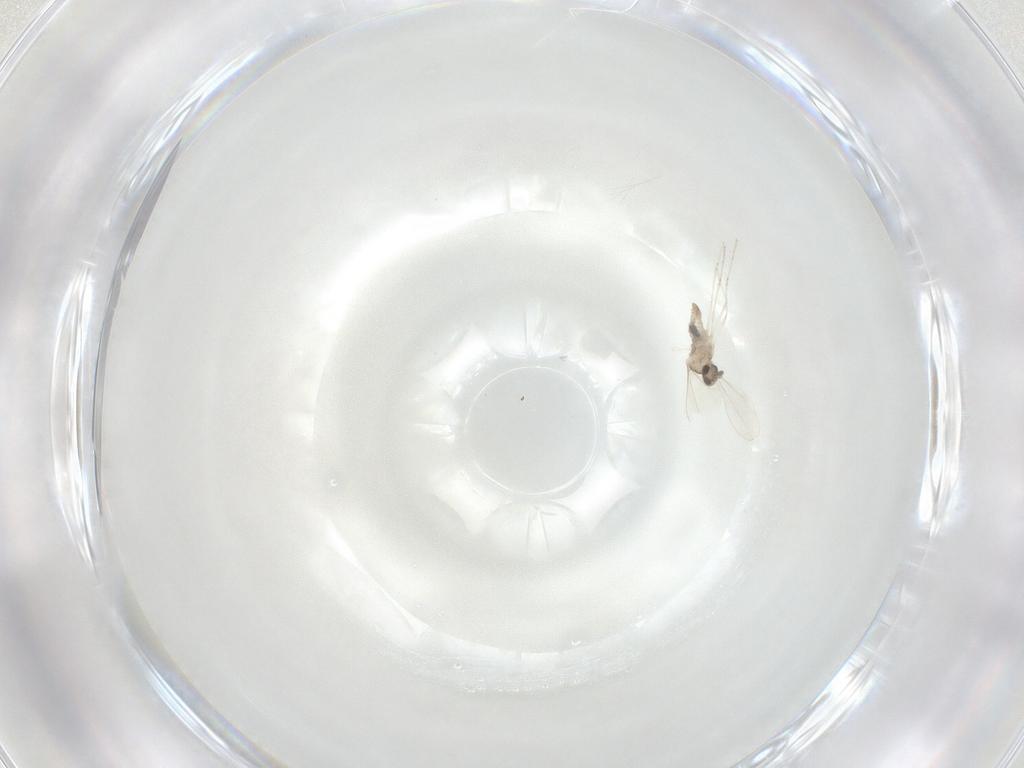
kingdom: Animalia
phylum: Arthropoda
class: Insecta
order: Diptera
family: Cecidomyiidae
